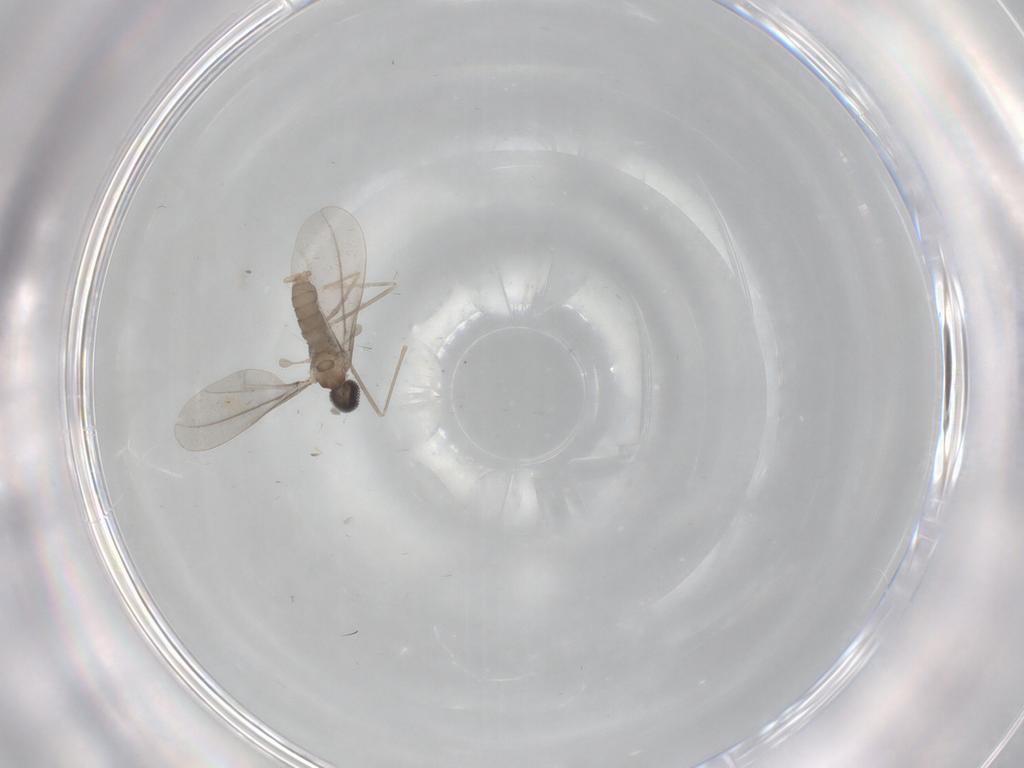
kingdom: Animalia
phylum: Arthropoda
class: Insecta
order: Diptera
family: Cecidomyiidae
